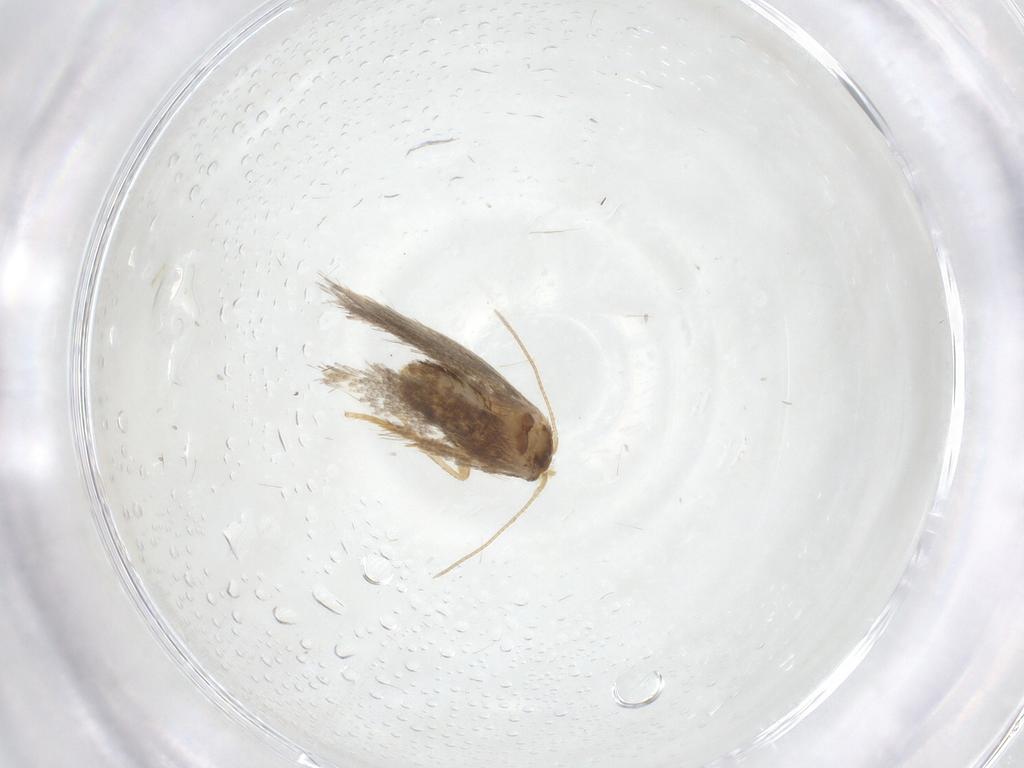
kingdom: Animalia
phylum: Arthropoda
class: Insecta
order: Lepidoptera
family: Nepticulidae
